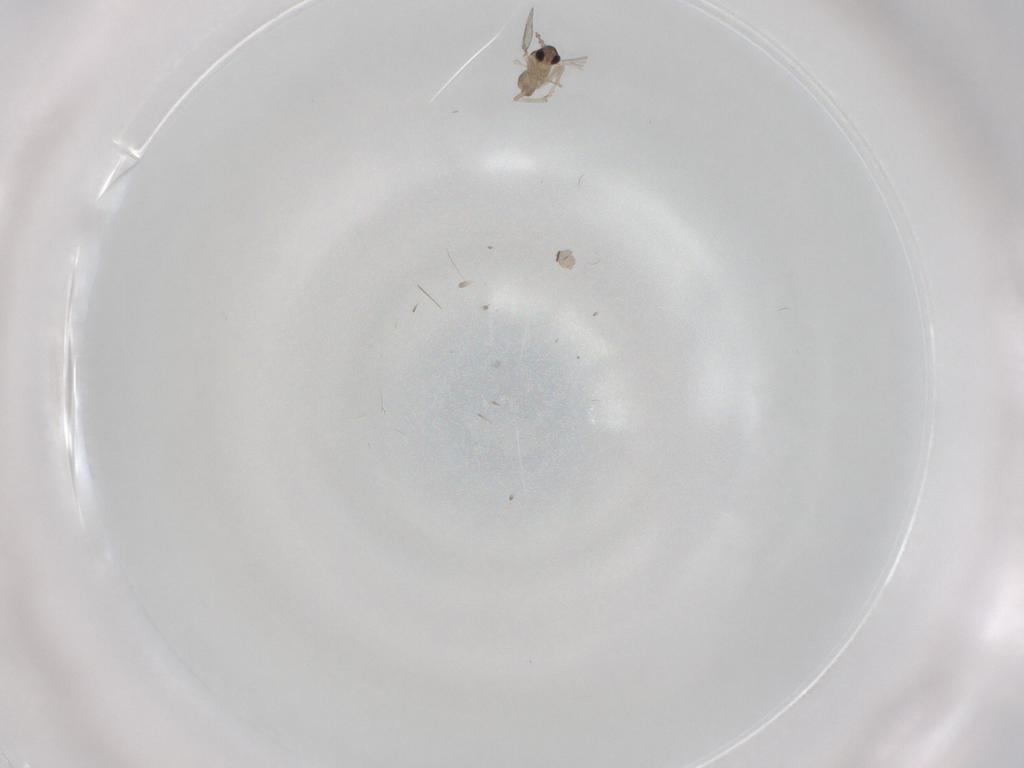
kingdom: Animalia
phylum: Arthropoda
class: Insecta
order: Diptera
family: Cecidomyiidae
